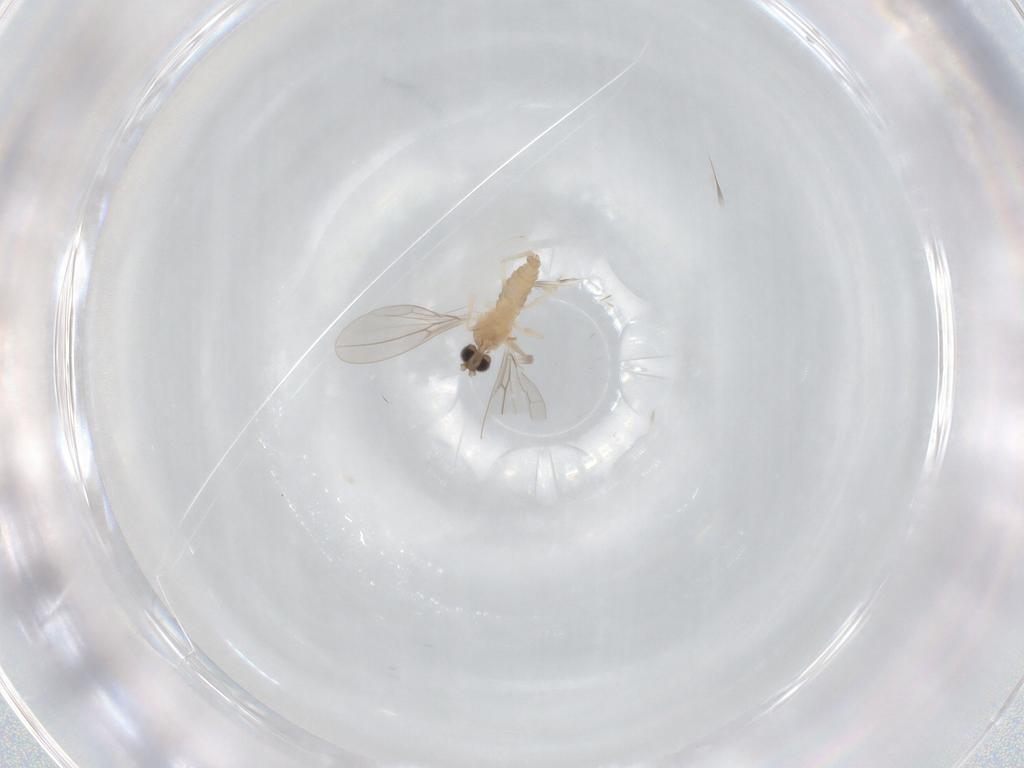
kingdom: Animalia
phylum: Arthropoda
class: Insecta
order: Diptera
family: Cecidomyiidae
